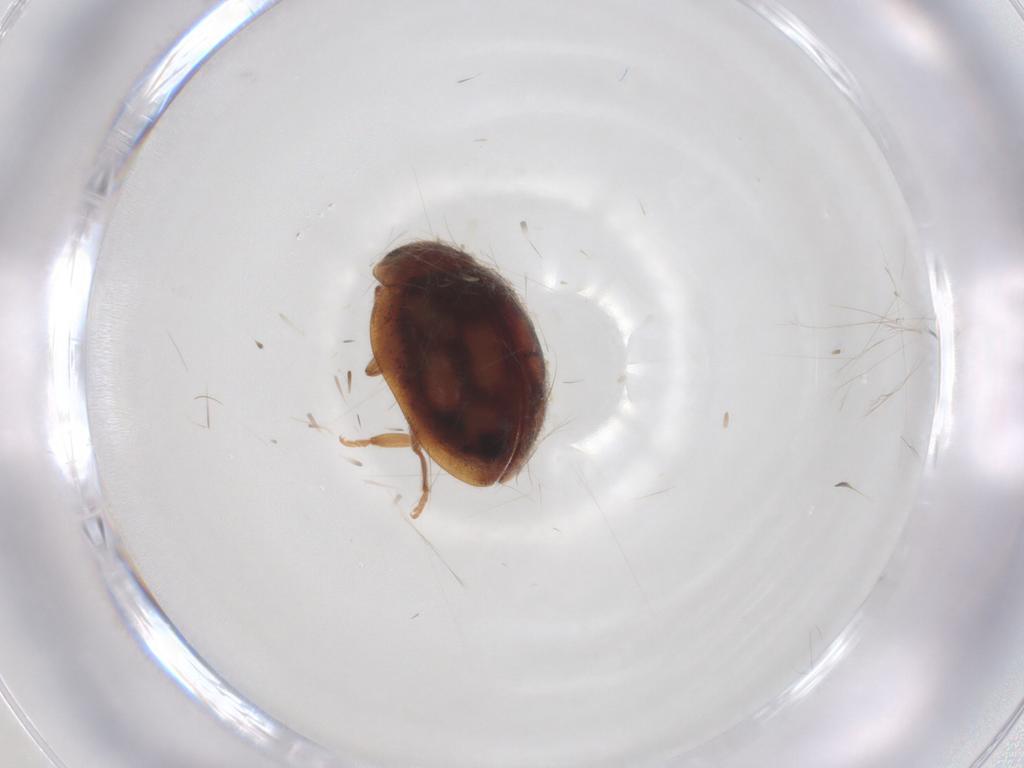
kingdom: Animalia
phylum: Arthropoda
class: Insecta
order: Coleoptera
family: Coccinellidae
